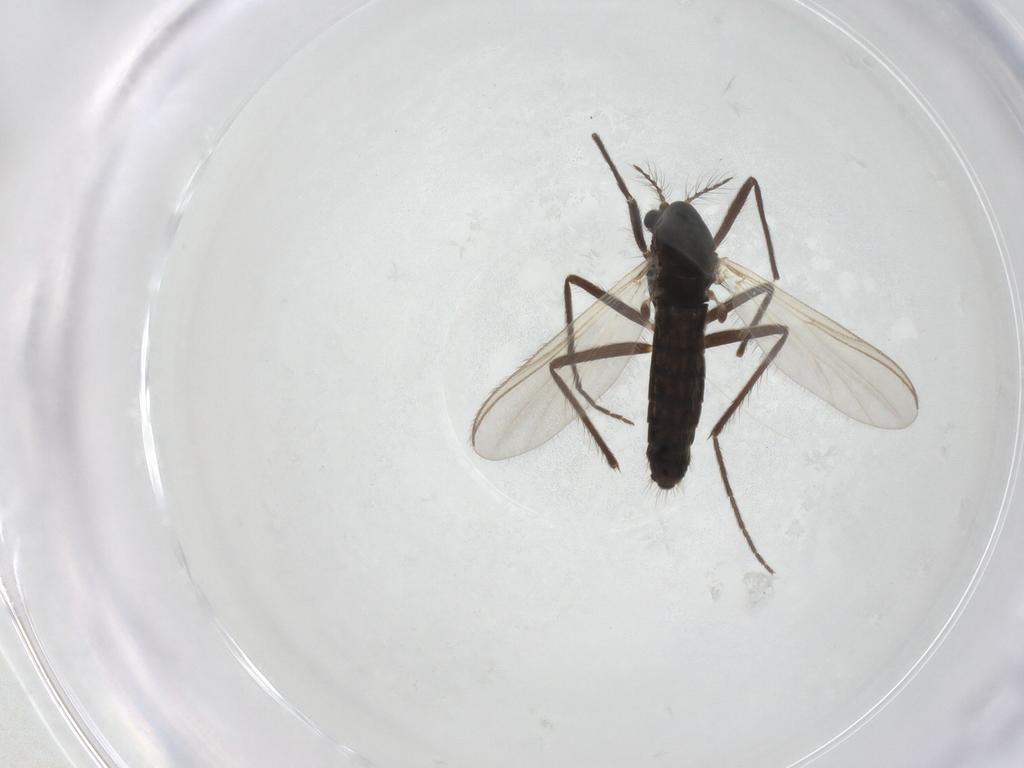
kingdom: Animalia
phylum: Arthropoda
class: Insecta
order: Diptera
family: Chironomidae
